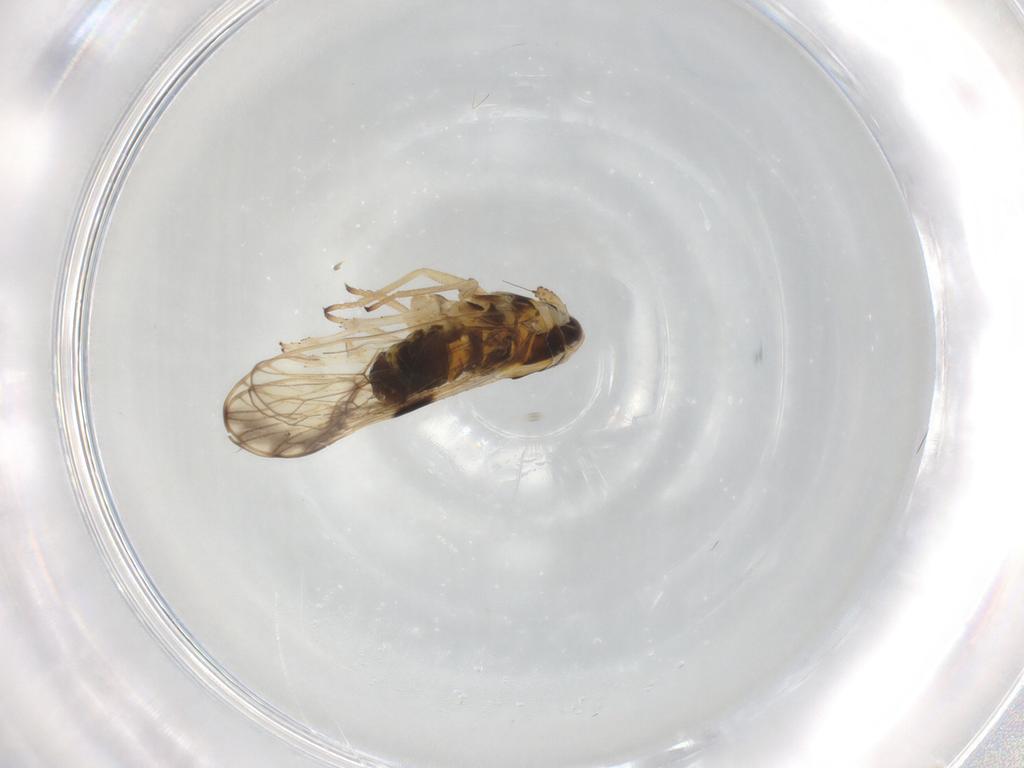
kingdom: Animalia
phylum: Arthropoda
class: Insecta
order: Hemiptera
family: Delphacidae
